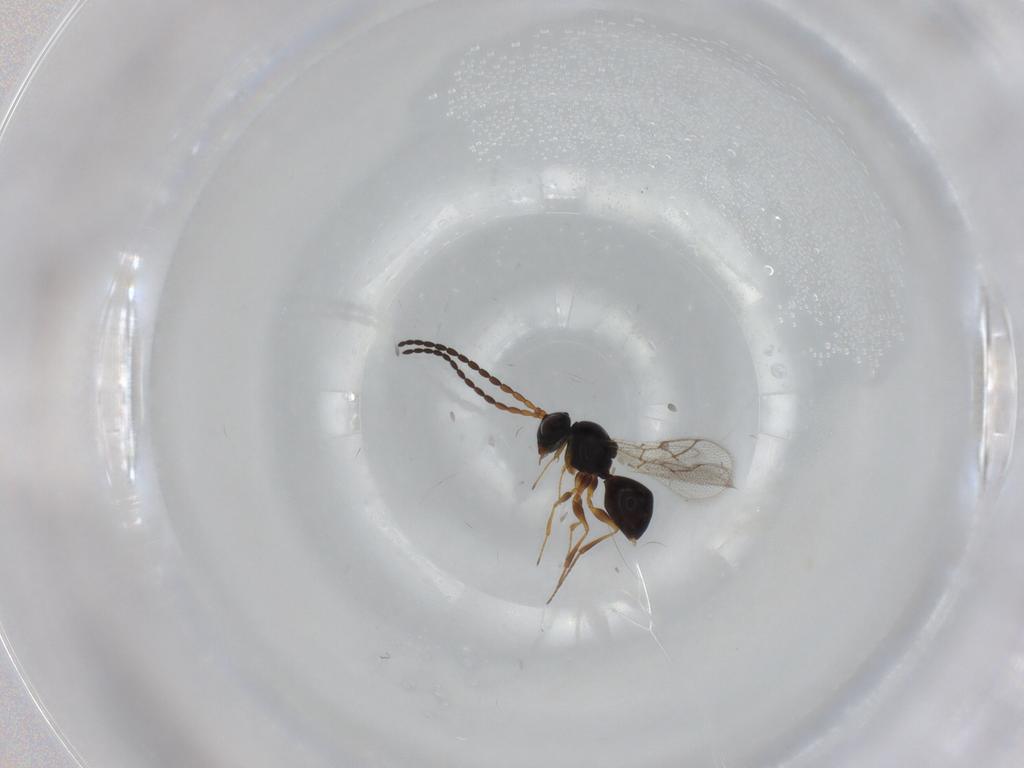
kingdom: Animalia
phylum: Arthropoda
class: Insecta
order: Hymenoptera
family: Figitidae
